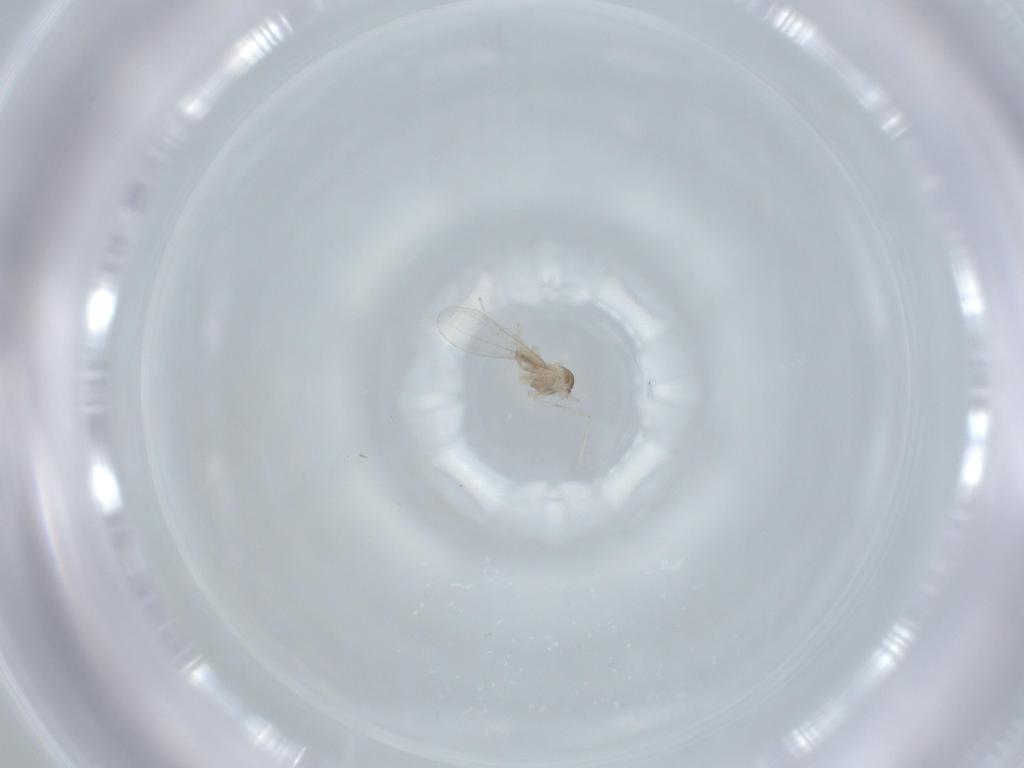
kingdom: Animalia
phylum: Arthropoda
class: Insecta
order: Diptera
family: Cecidomyiidae
